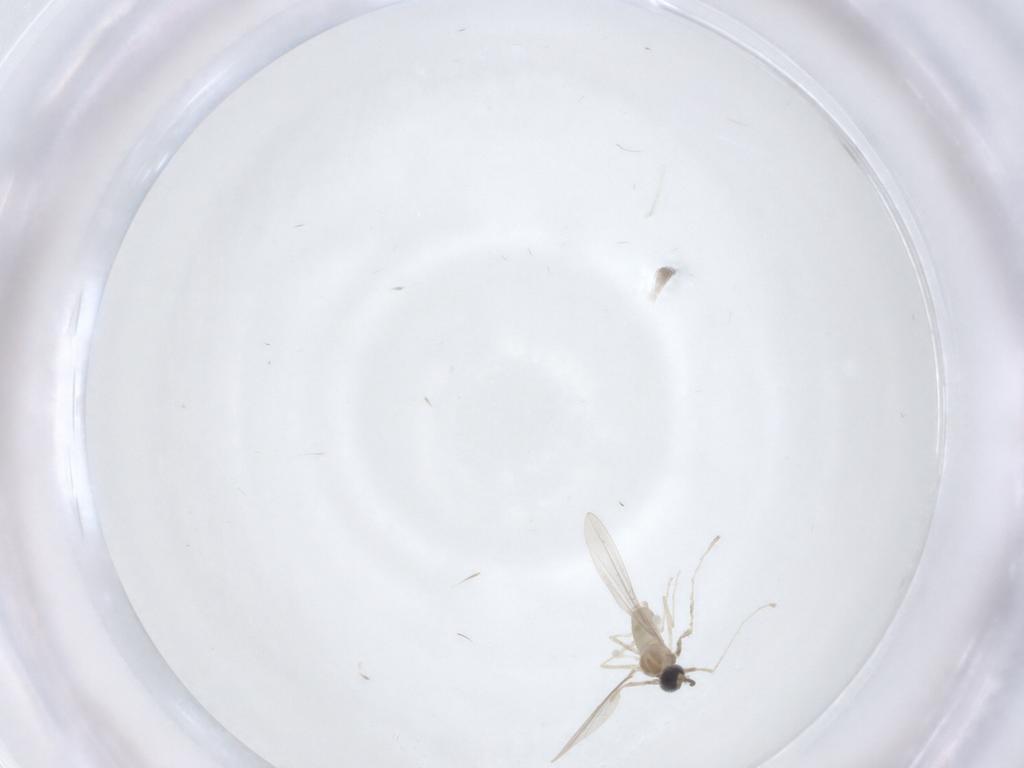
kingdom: Animalia
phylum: Arthropoda
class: Insecta
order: Diptera
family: Cecidomyiidae
